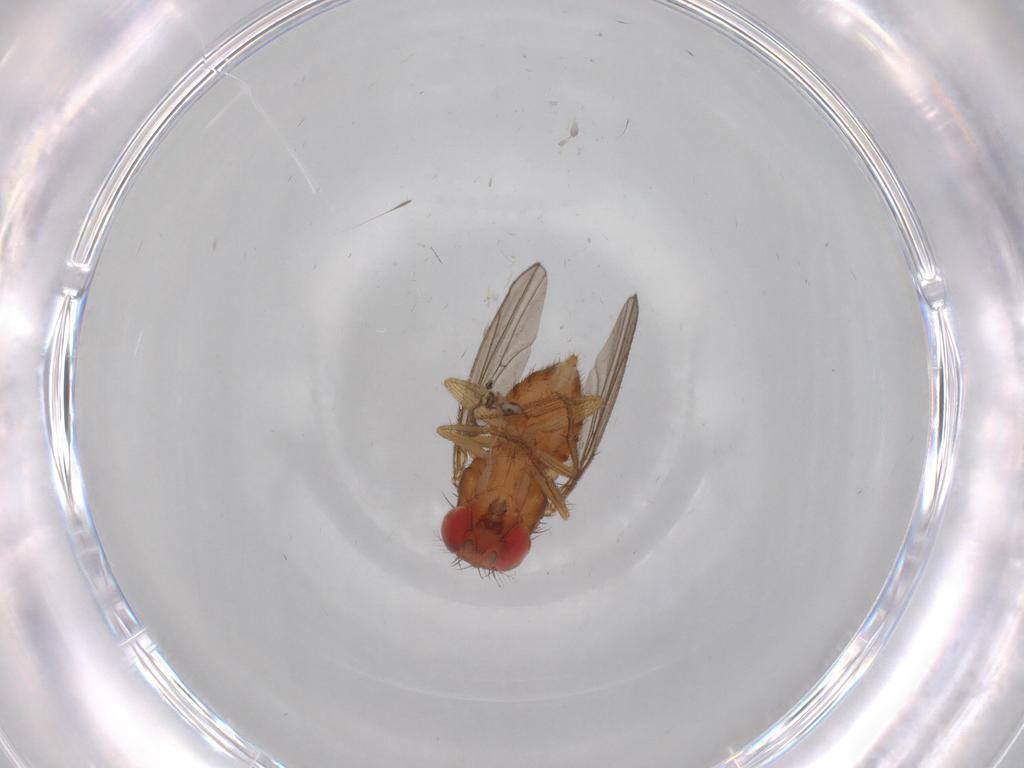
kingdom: Animalia
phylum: Arthropoda
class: Insecta
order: Diptera
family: Drosophilidae
